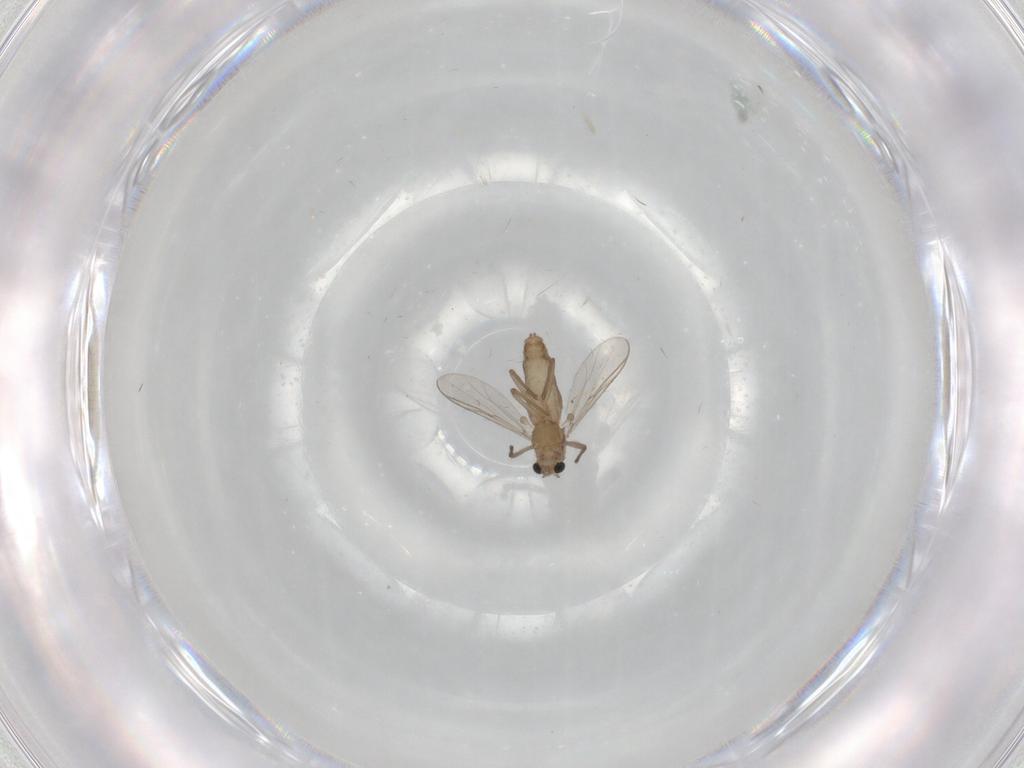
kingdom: Animalia
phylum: Arthropoda
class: Insecta
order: Diptera
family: Chironomidae
